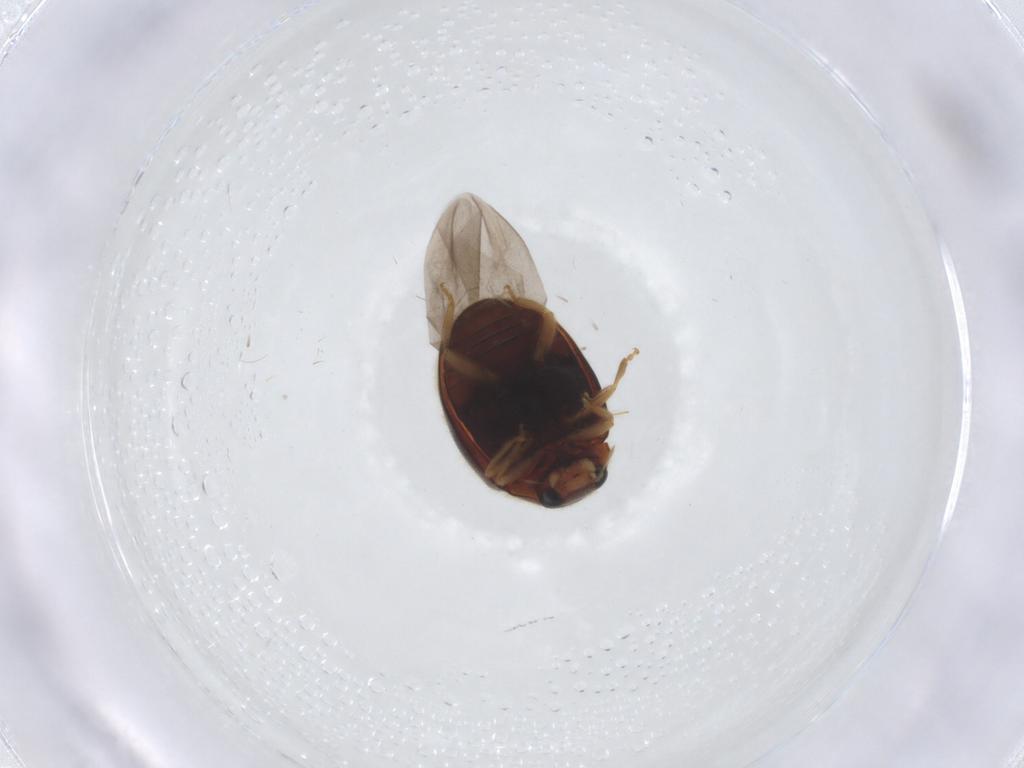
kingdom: Animalia
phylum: Arthropoda
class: Insecta
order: Coleoptera
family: Coccinellidae
